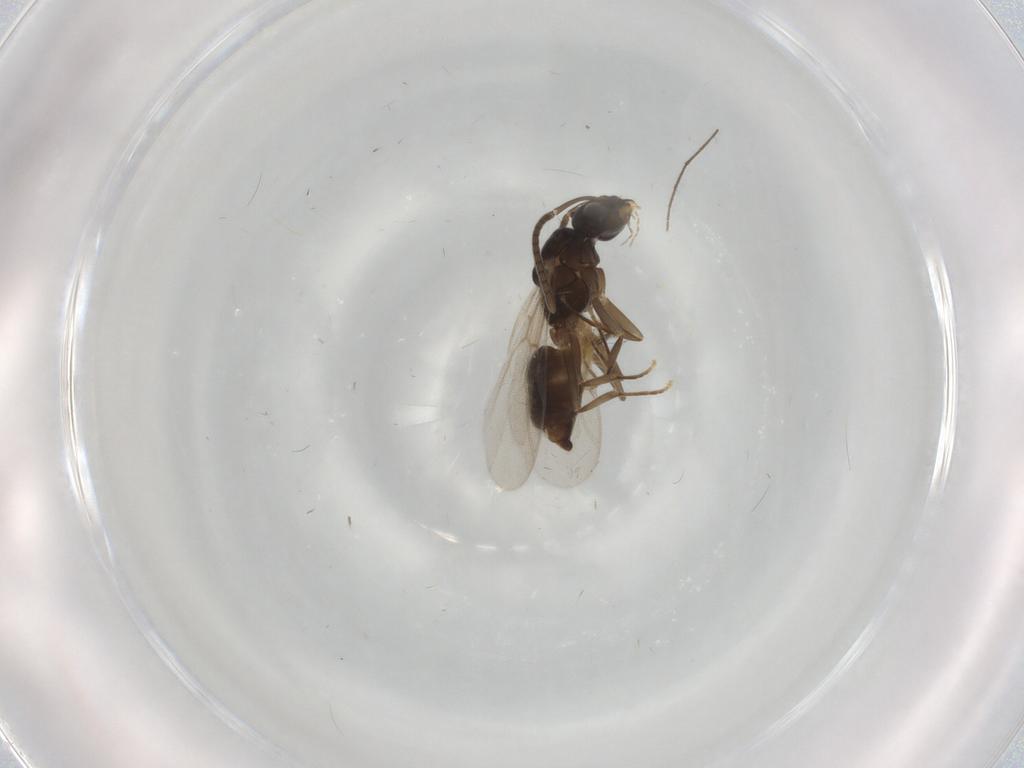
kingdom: Animalia
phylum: Arthropoda
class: Insecta
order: Hymenoptera
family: Formicidae
